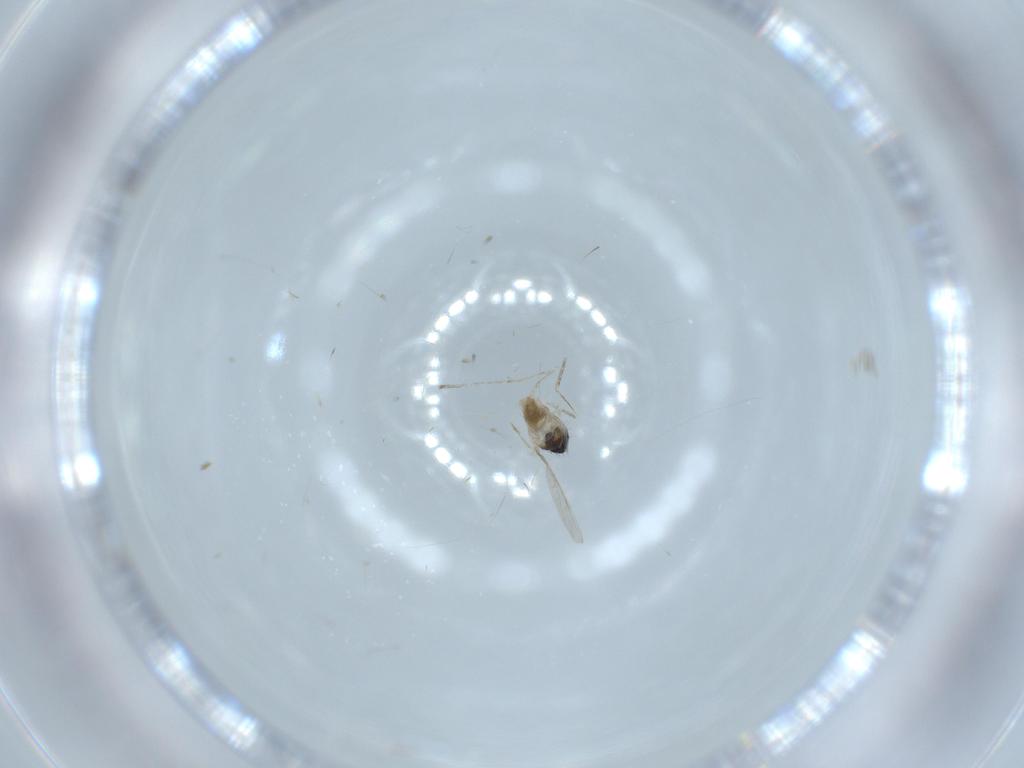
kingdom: Animalia
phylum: Arthropoda
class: Insecta
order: Diptera
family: Cecidomyiidae
